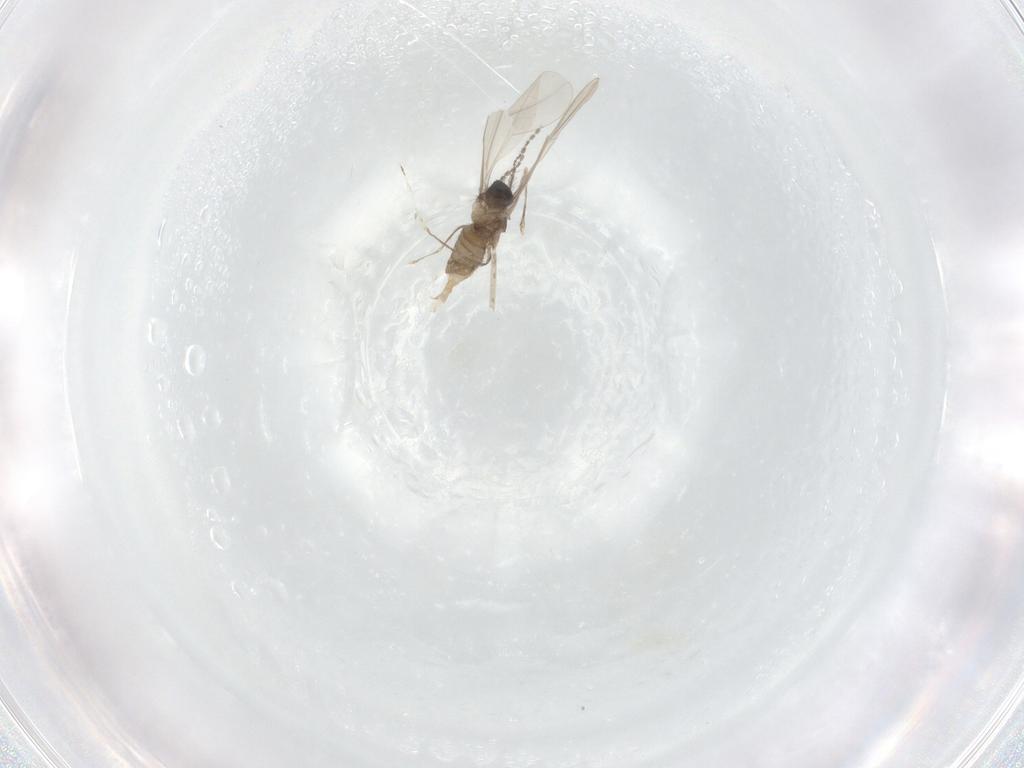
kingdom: Animalia
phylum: Arthropoda
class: Insecta
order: Diptera
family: Cecidomyiidae
